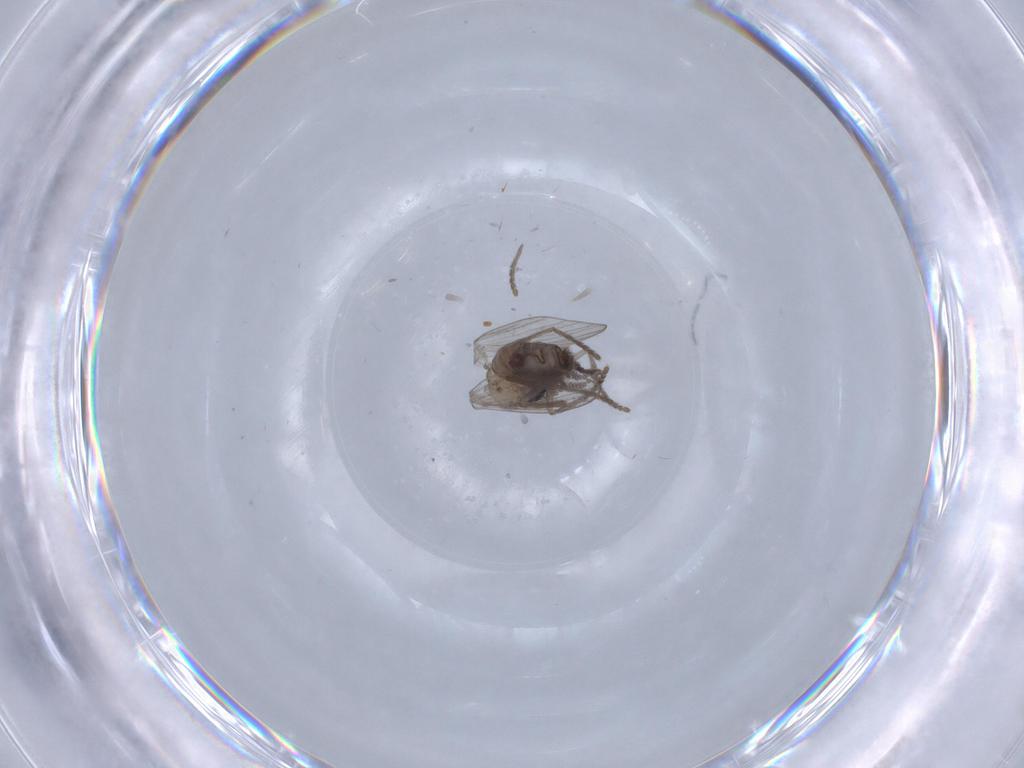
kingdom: Animalia
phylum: Arthropoda
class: Insecta
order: Diptera
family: Psychodidae
